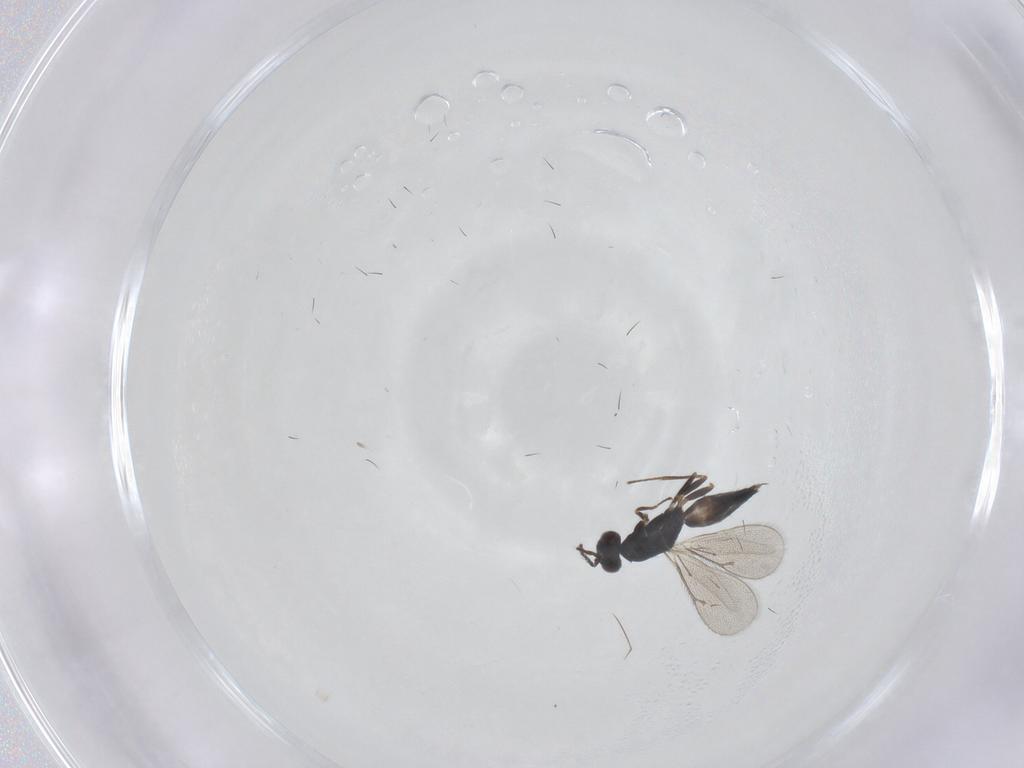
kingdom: Animalia
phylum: Arthropoda
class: Insecta
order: Hymenoptera
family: Eulophidae
